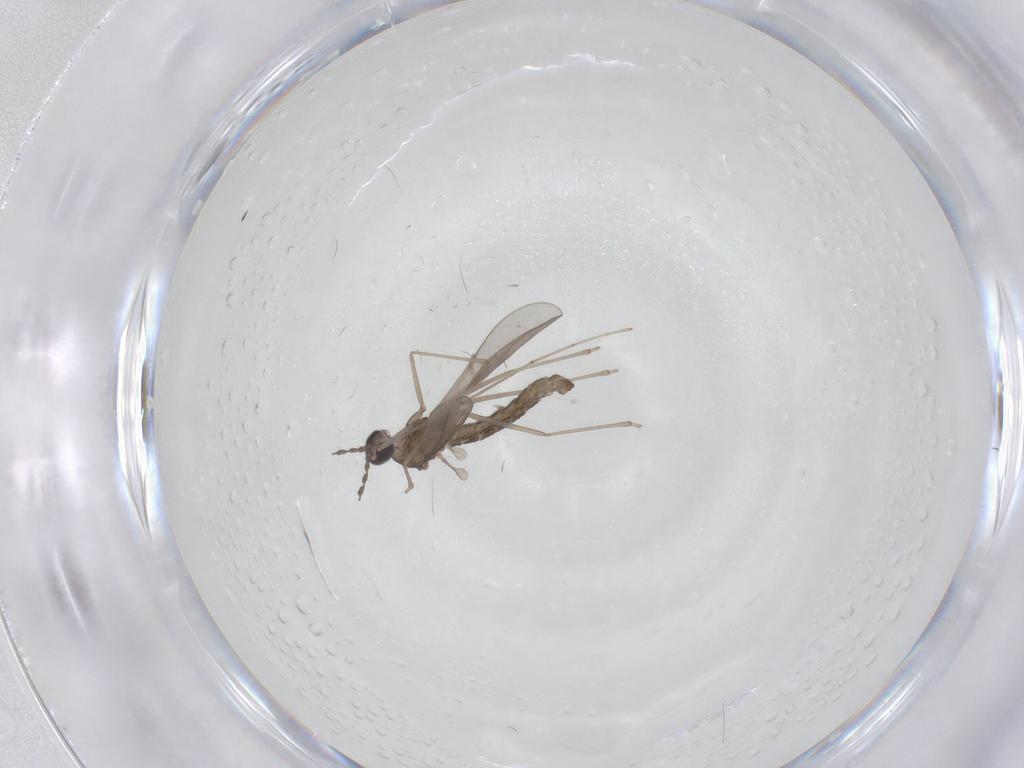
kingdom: Animalia
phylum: Arthropoda
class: Insecta
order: Diptera
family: Cecidomyiidae
